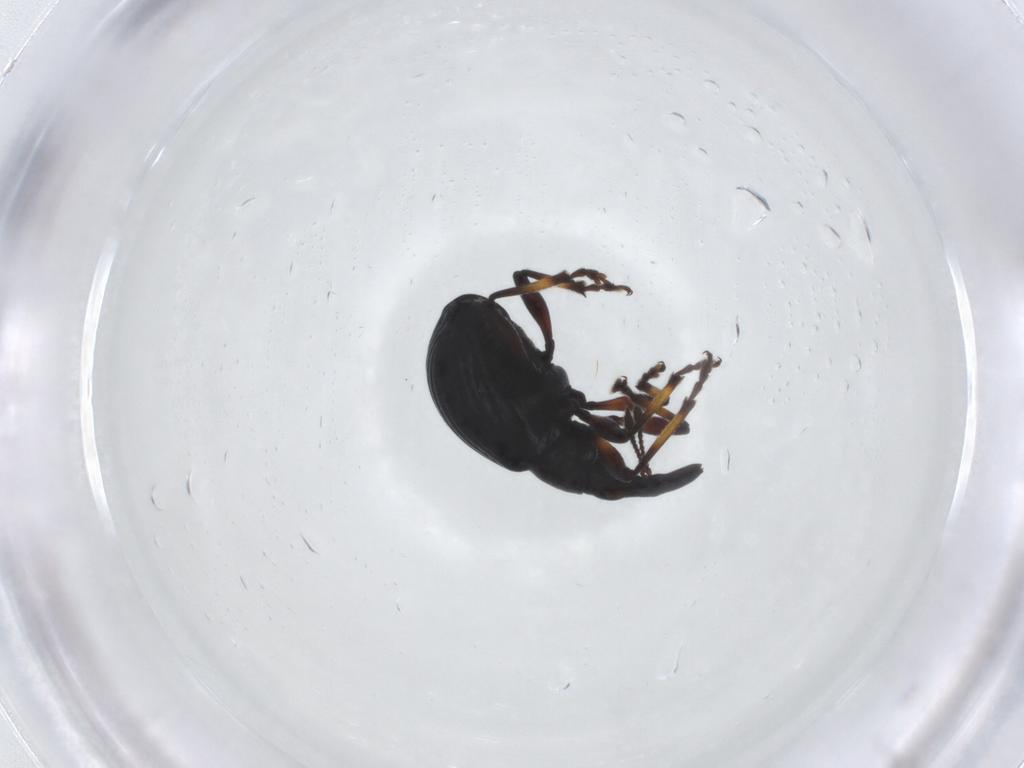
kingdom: Animalia
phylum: Arthropoda
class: Insecta
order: Coleoptera
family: Brentidae
